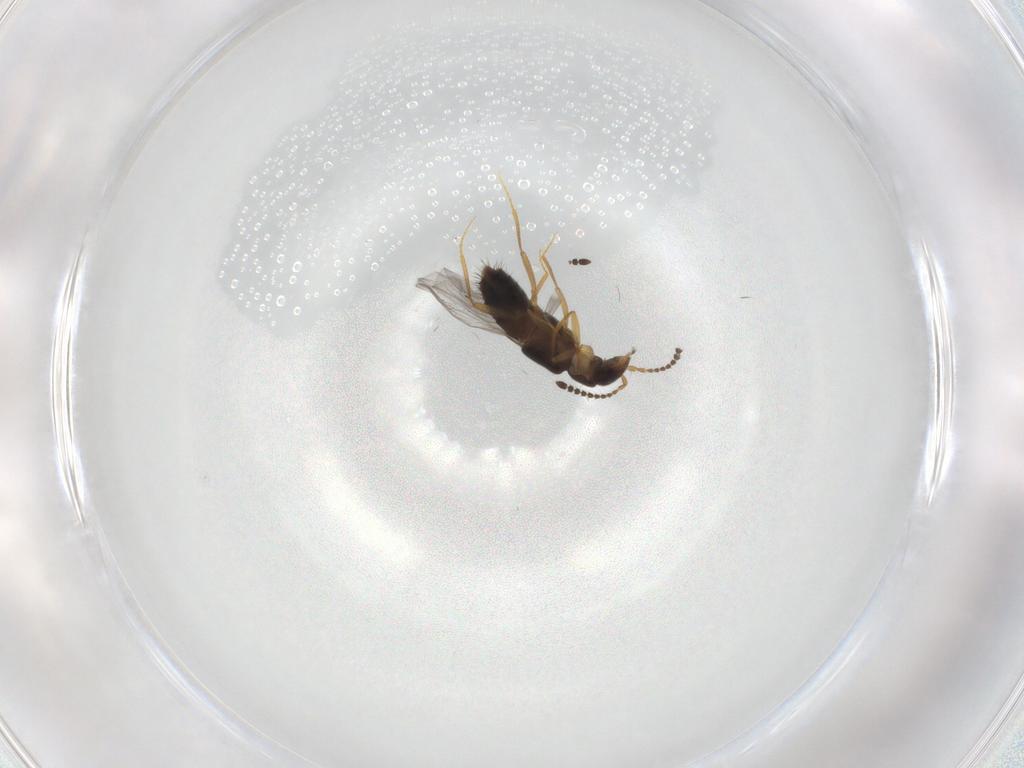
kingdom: Animalia
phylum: Arthropoda
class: Insecta
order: Coleoptera
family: Staphylinidae
